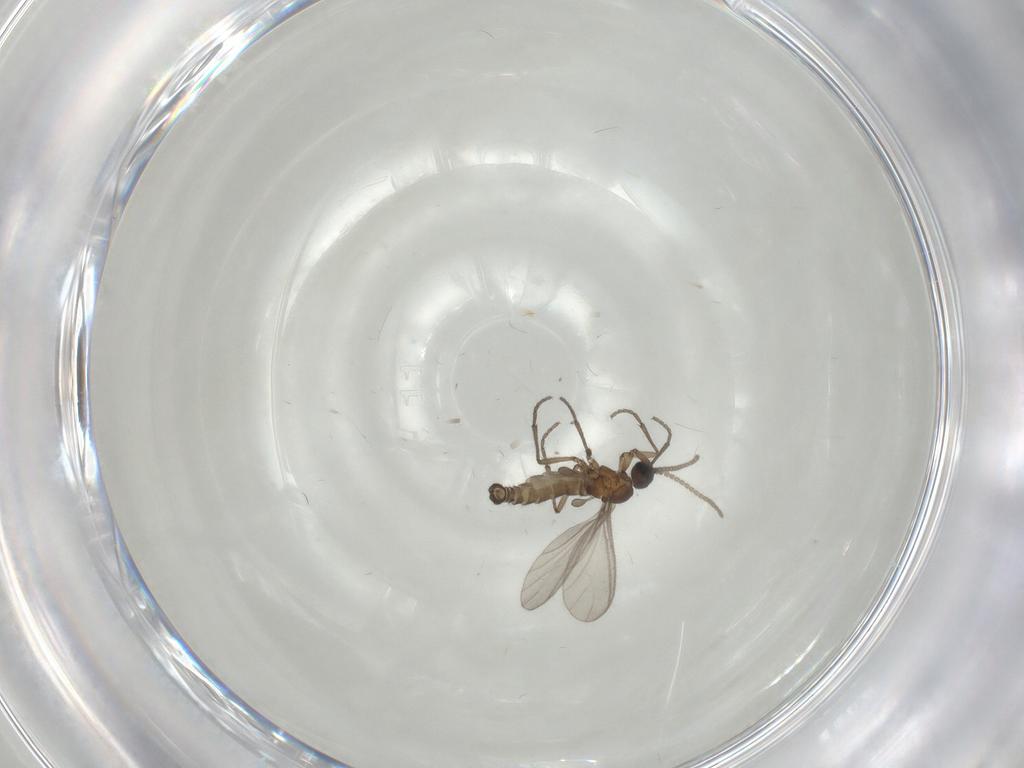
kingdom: Animalia
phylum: Arthropoda
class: Insecta
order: Diptera
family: Sciaridae
